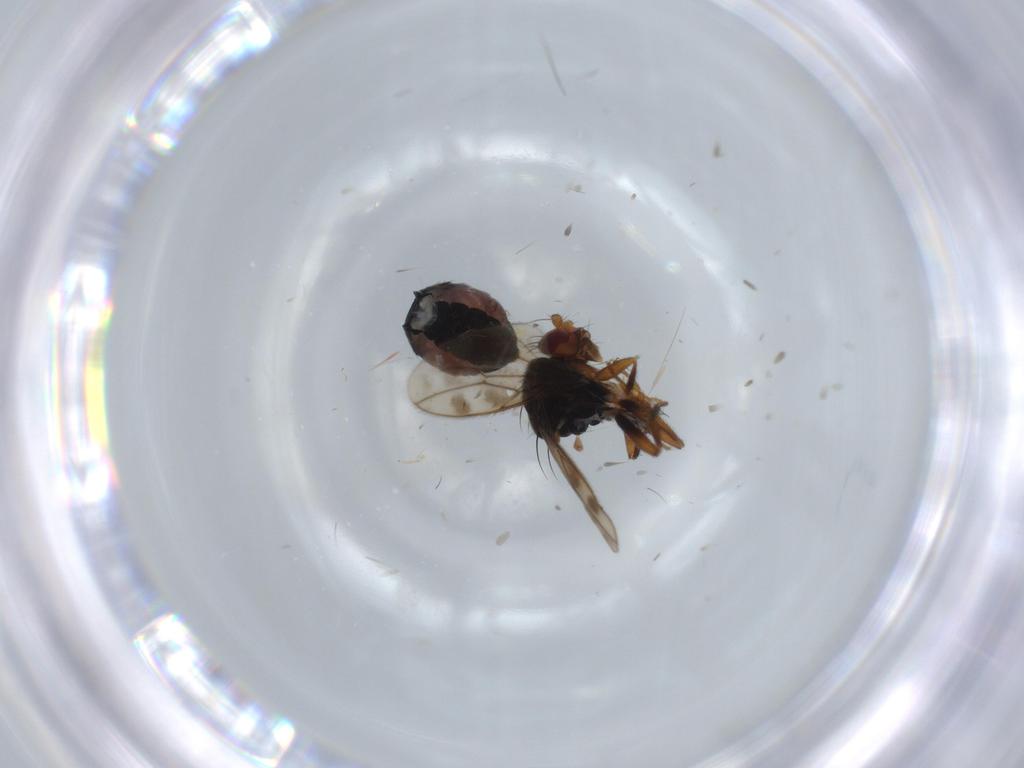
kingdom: Animalia
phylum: Arthropoda
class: Insecta
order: Diptera
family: Sphaeroceridae
